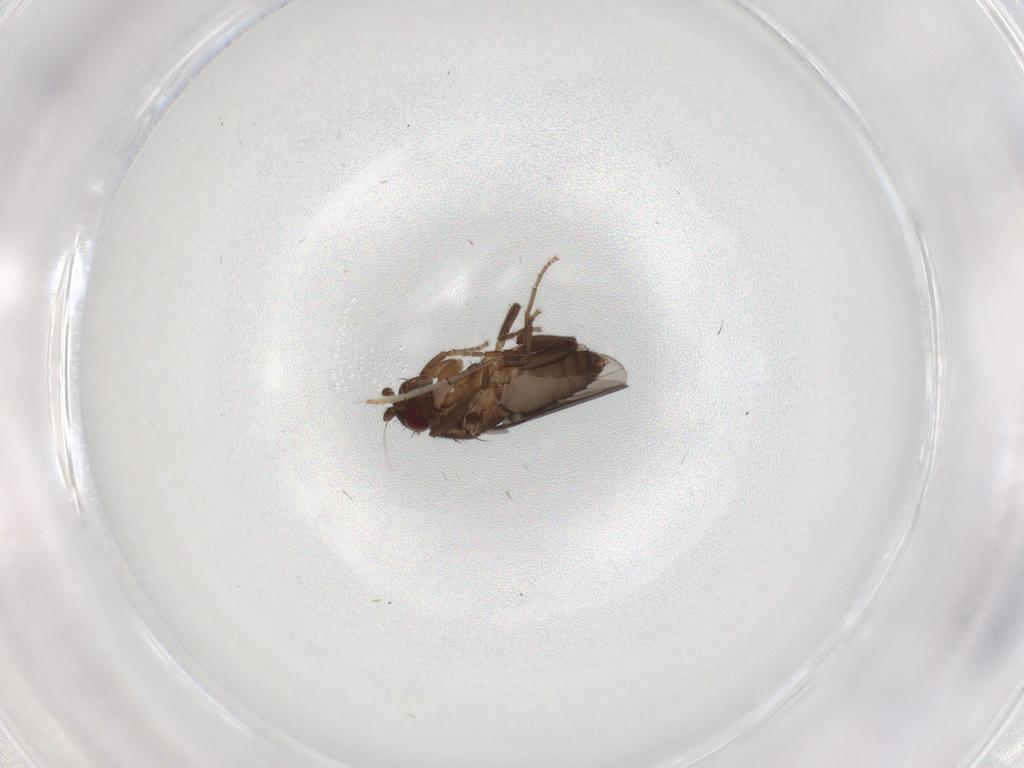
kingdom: Animalia
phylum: Arthropoda
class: Insecta
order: Diptera
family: Sphaeroceridae
